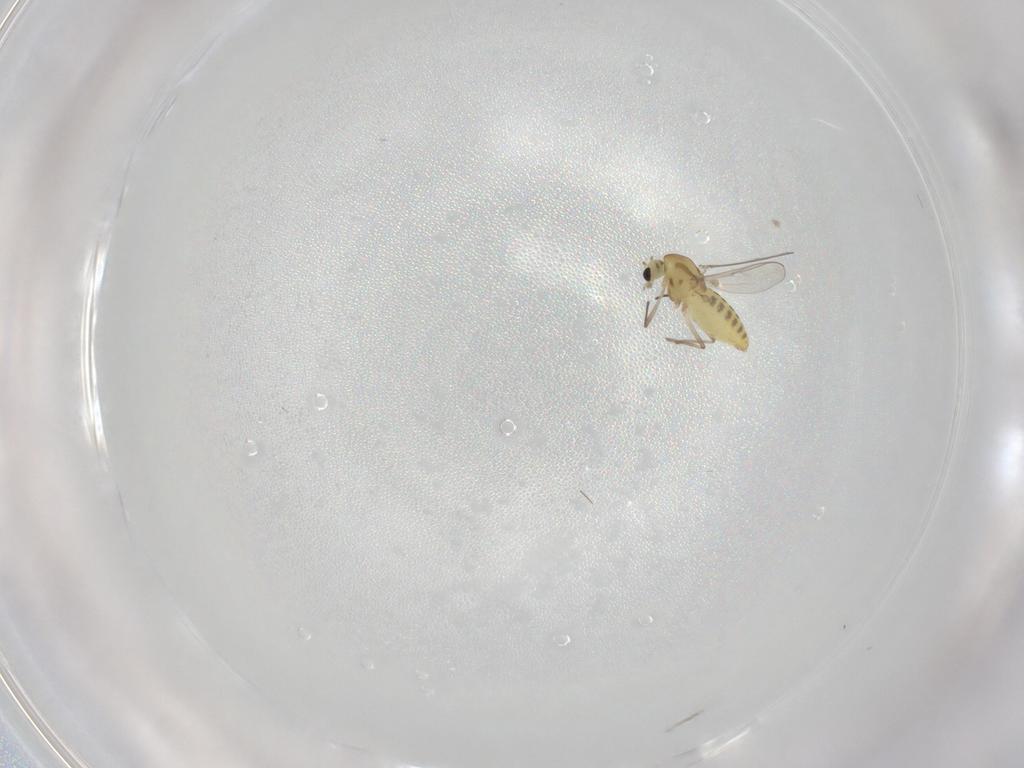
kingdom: Animalia
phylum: Arthropoda
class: Insecta
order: Diptera
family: Chironomidae
